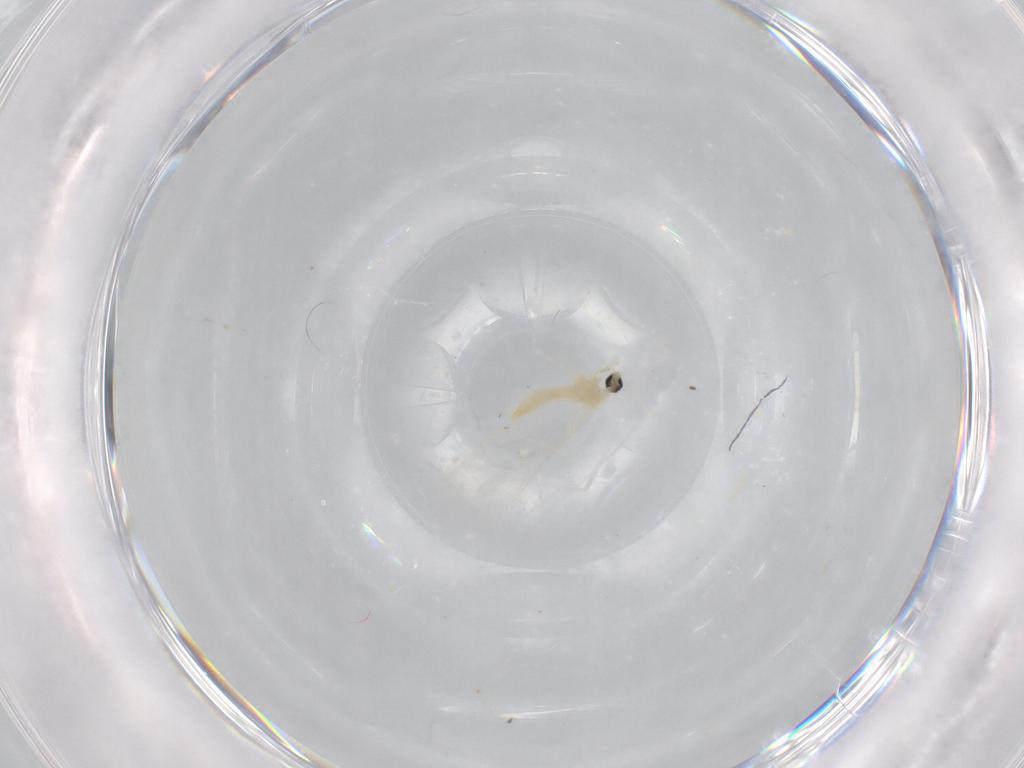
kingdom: Animalia
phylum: Arthropoda
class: Insecta
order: Diptera
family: Cecidomyiidae
